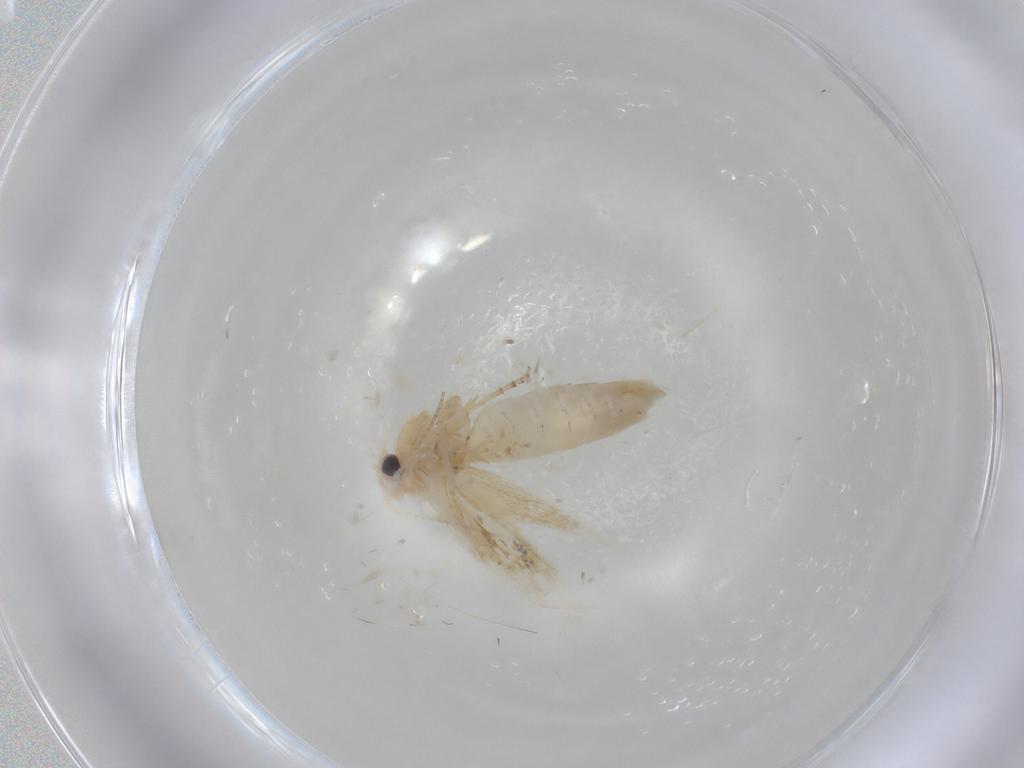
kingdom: Animalia
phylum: Arthropoda
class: Insecta
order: Lepidoptera
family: Bucculatricidae
